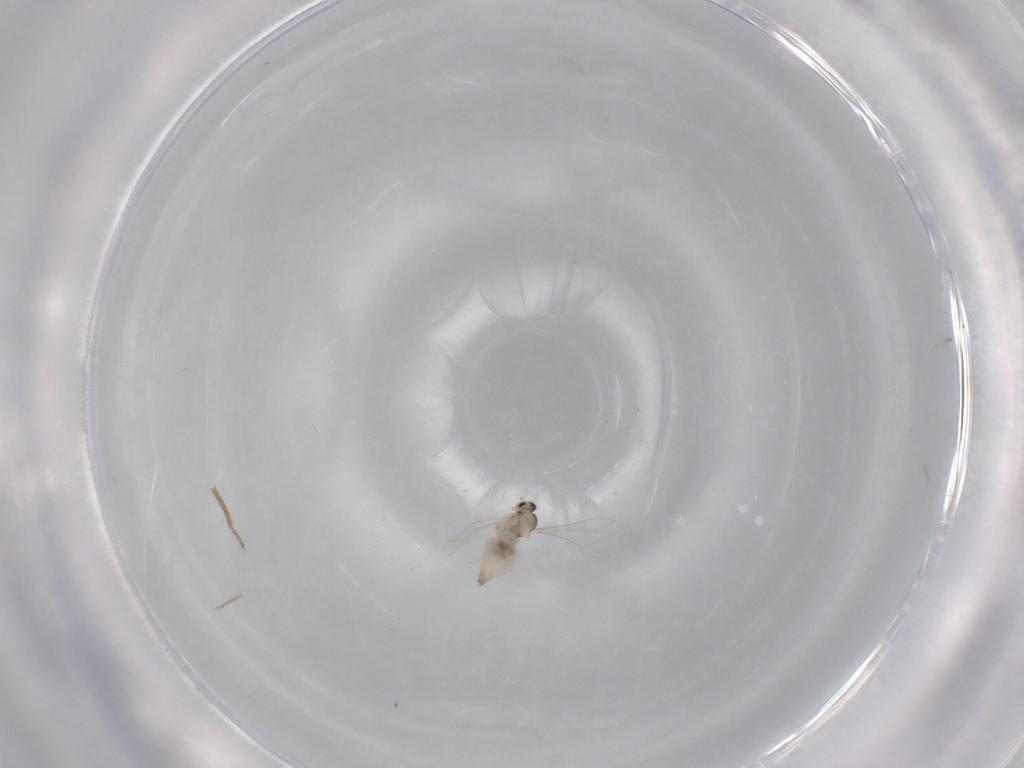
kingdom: Animalia
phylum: Arthropoda
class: Insecta
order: Diptera
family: Cecidomyiidae
